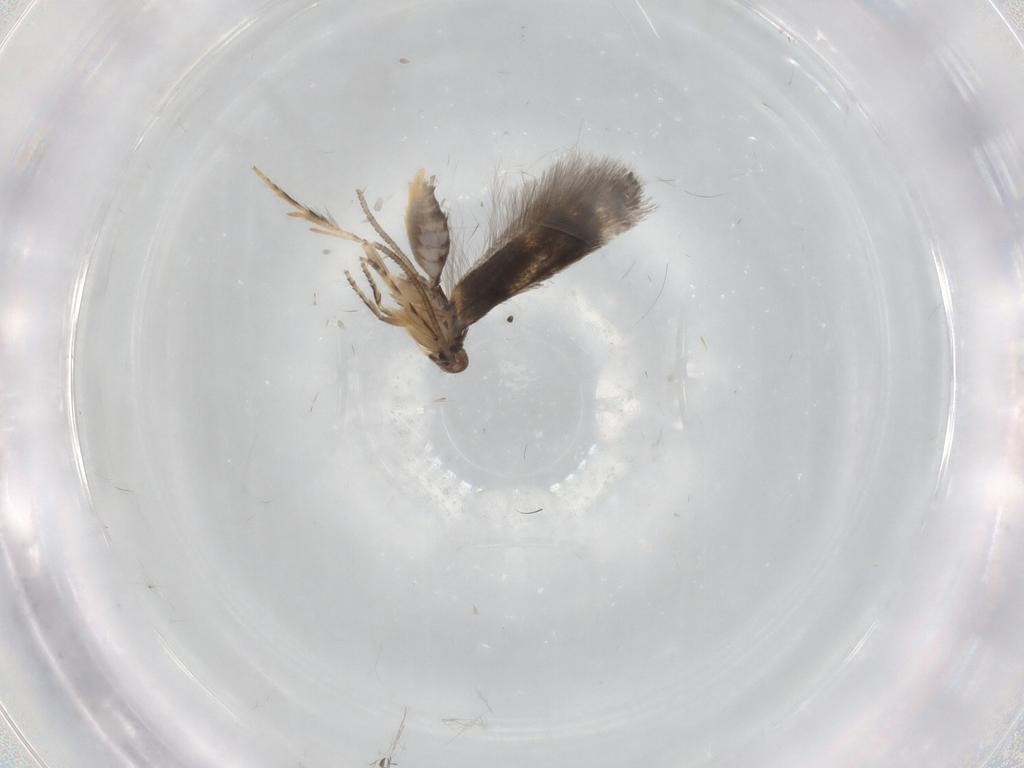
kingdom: Animalia
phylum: Arthropoda
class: Insecta
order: Lepidoptera
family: Elachistidae
